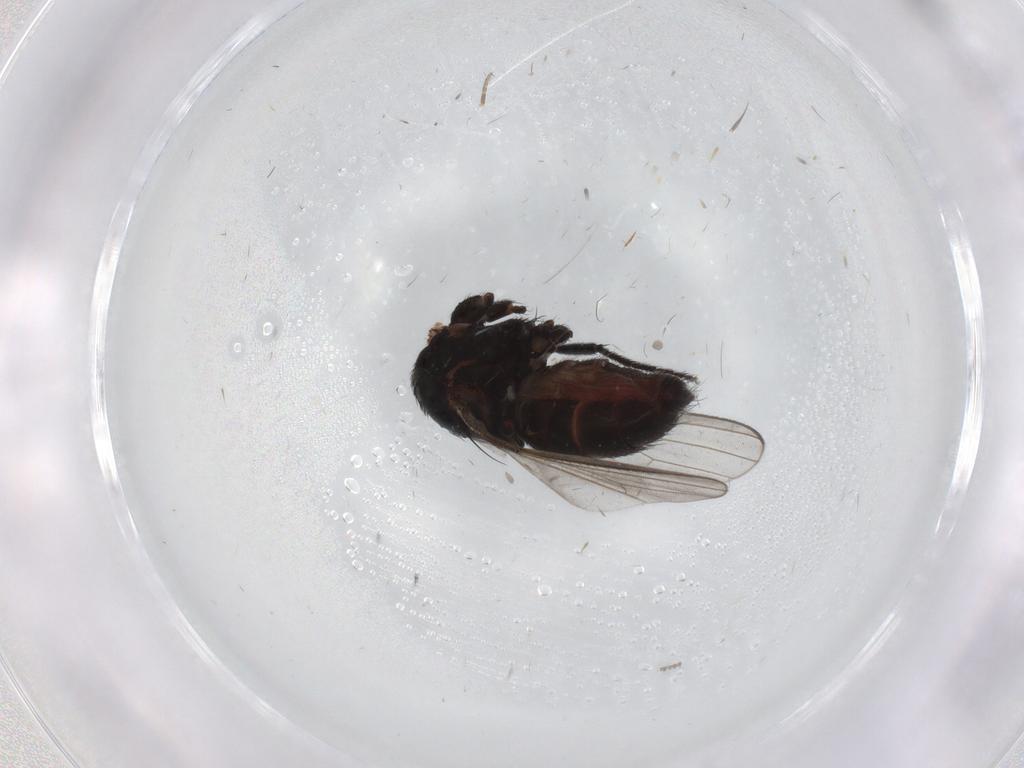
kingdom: Animalia
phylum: Arthropoda
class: Insecta
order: Diptera
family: Milichiidae
